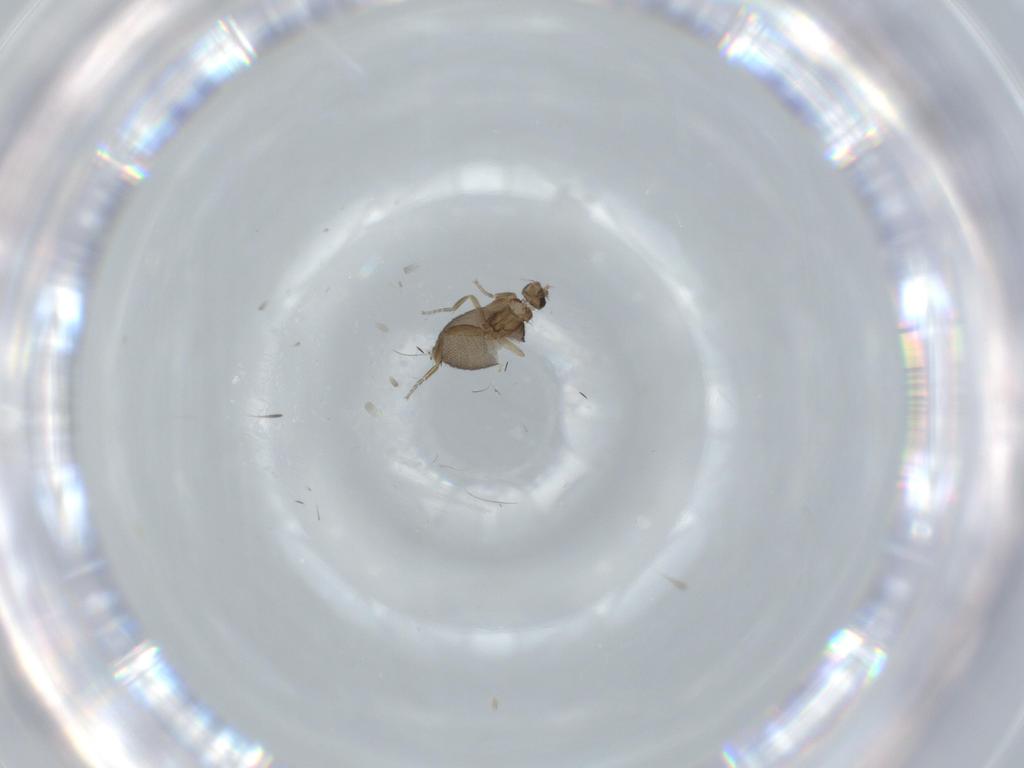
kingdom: Animalia
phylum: Arthropoda
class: Insecta
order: Diptera
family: Phoridae
